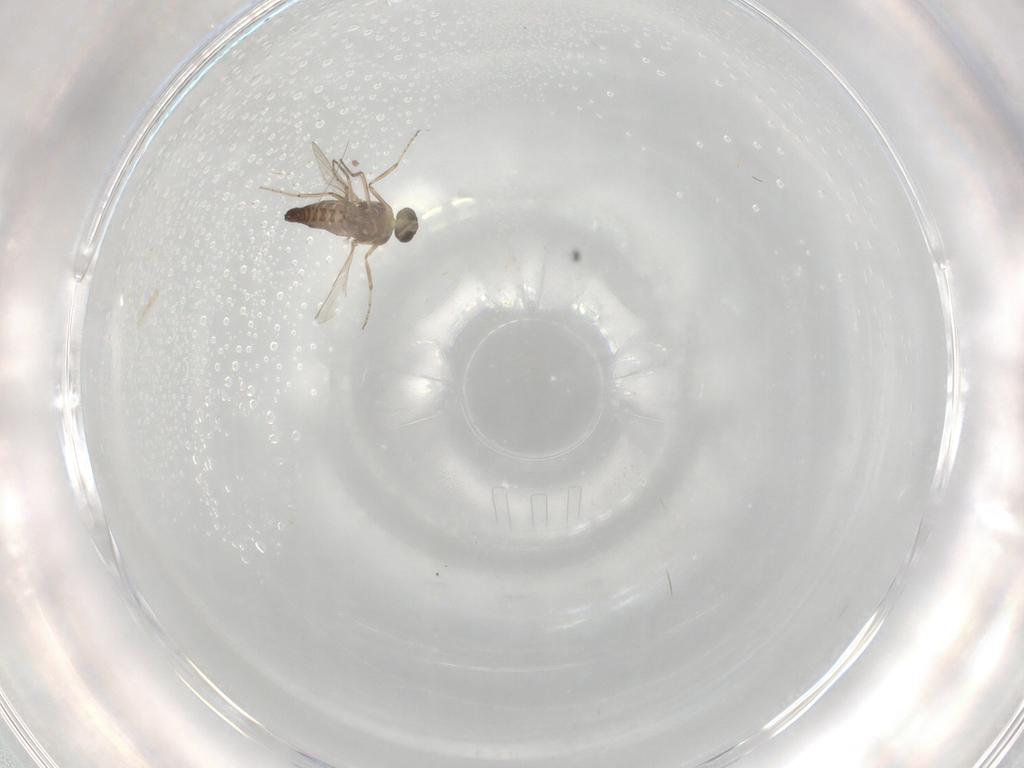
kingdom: Animalia
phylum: Arthropoda
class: Insecta
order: Diptera
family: Ceratopogonidae
